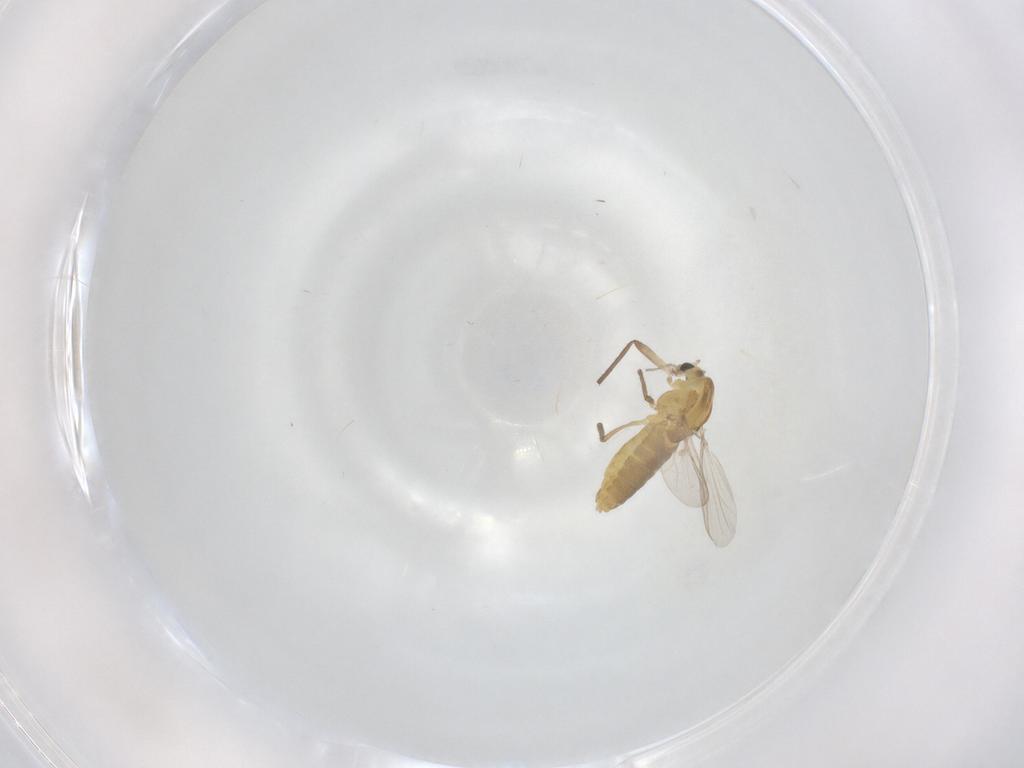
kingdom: Animalia
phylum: Arthropoda
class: Insecta
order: Diptera
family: Chironomidae
